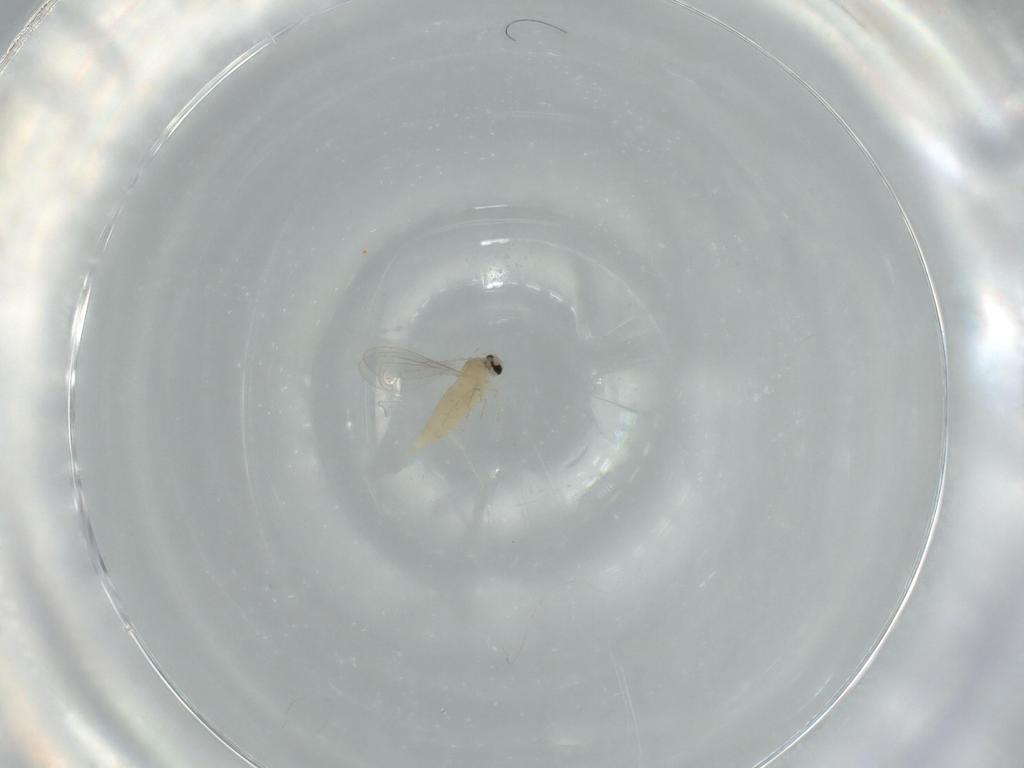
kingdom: Animalia
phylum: Arthropoda
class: Insecta
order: Diptera
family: Cecidomyiidae
